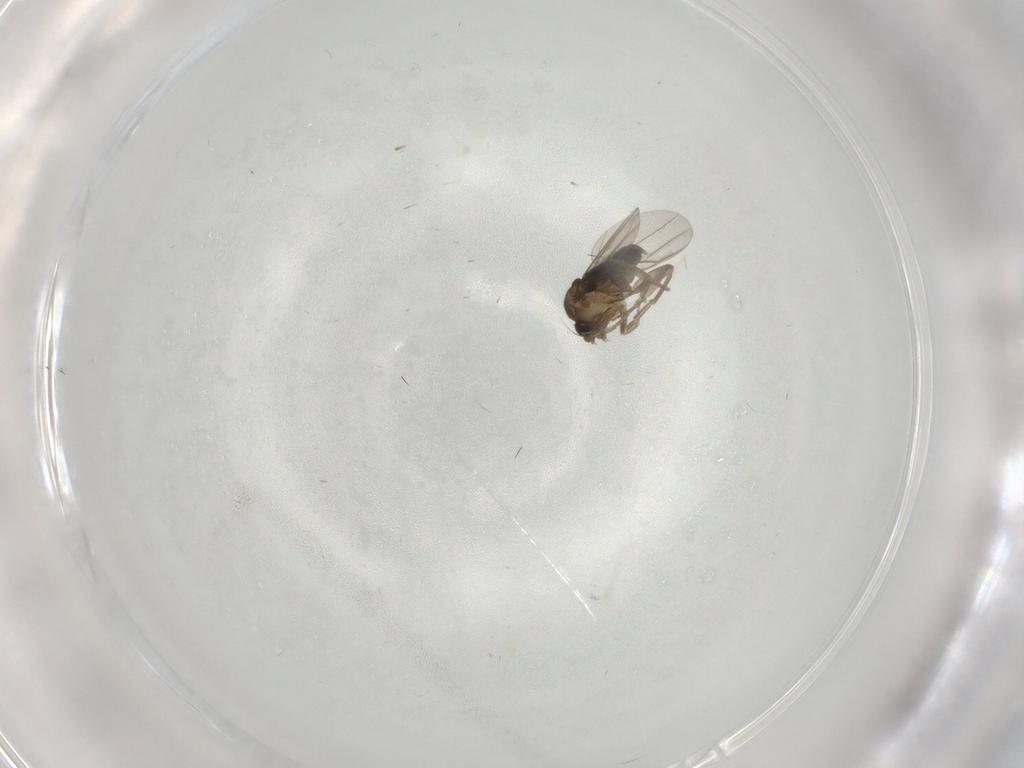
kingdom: Animalia
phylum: Arthropoda
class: Insecta
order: Diptera
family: Phoridae
